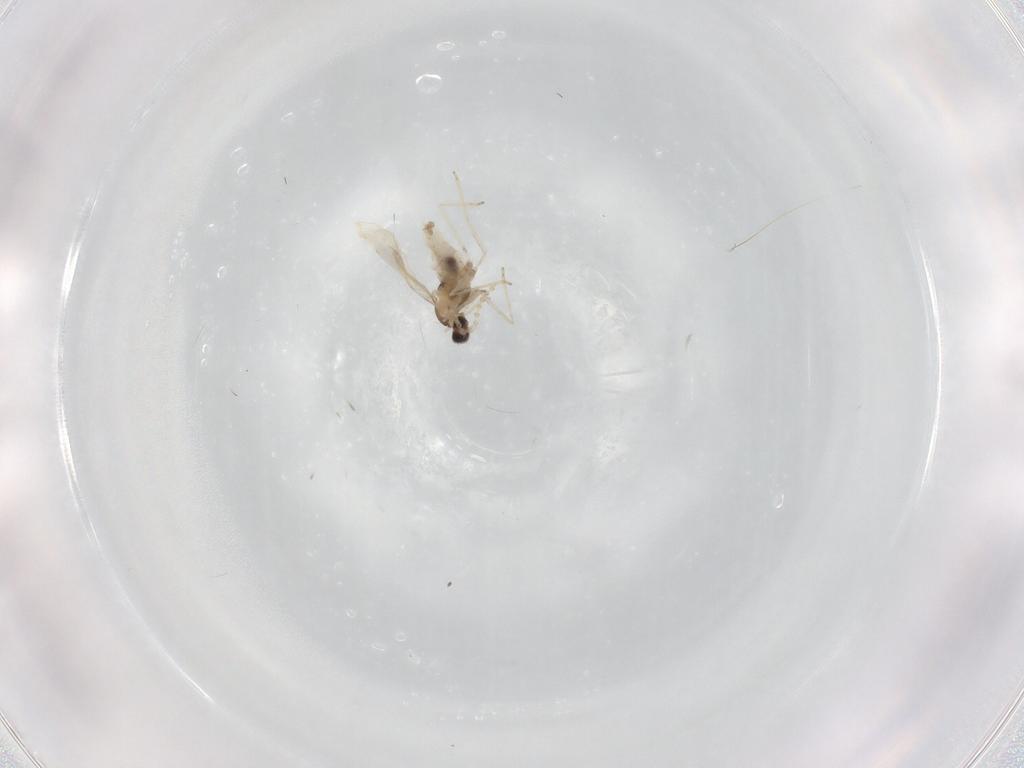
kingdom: Animalia
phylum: Arthropoda
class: Insecta
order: Diptera
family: Cecidomyiidae
